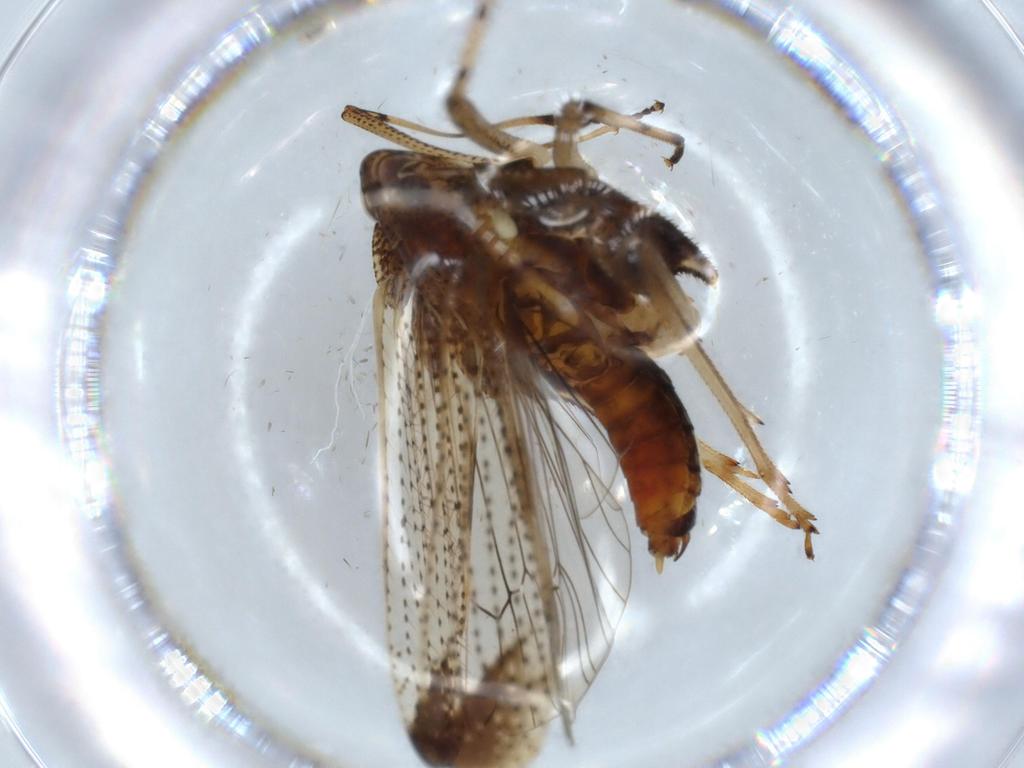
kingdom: Animalia
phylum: Arthropoda
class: Insecta
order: Hemiptera
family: Delphacidae
